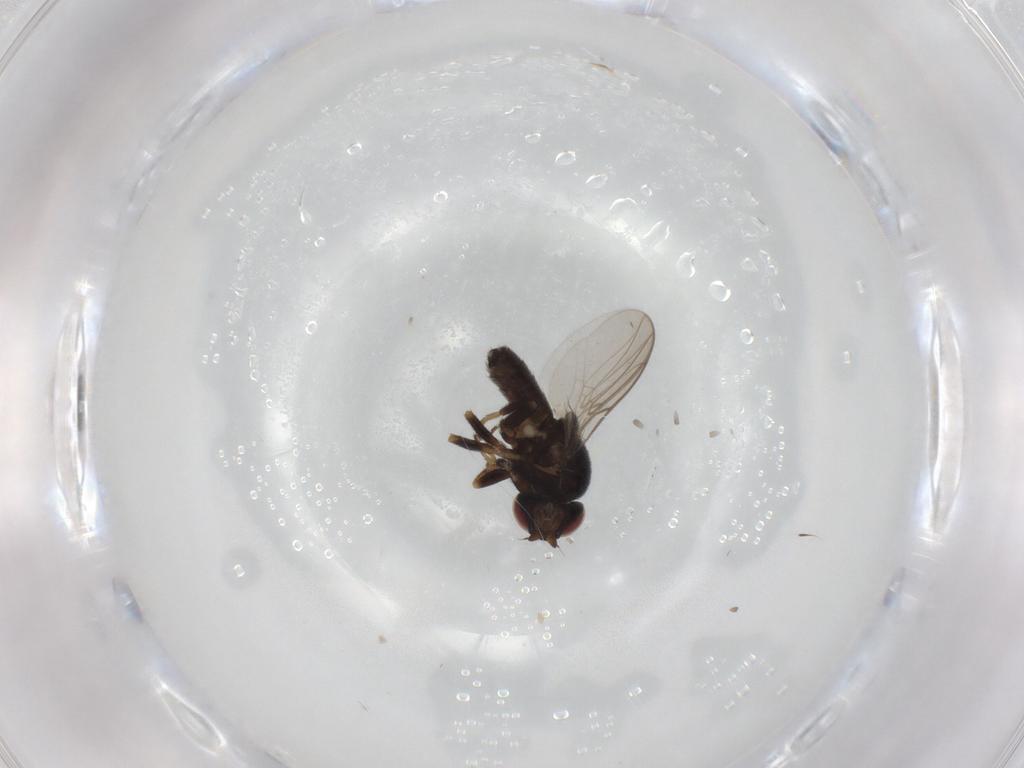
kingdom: Animalia
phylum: Arthropoda
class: Insecta
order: Diptera
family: Chloropidae
